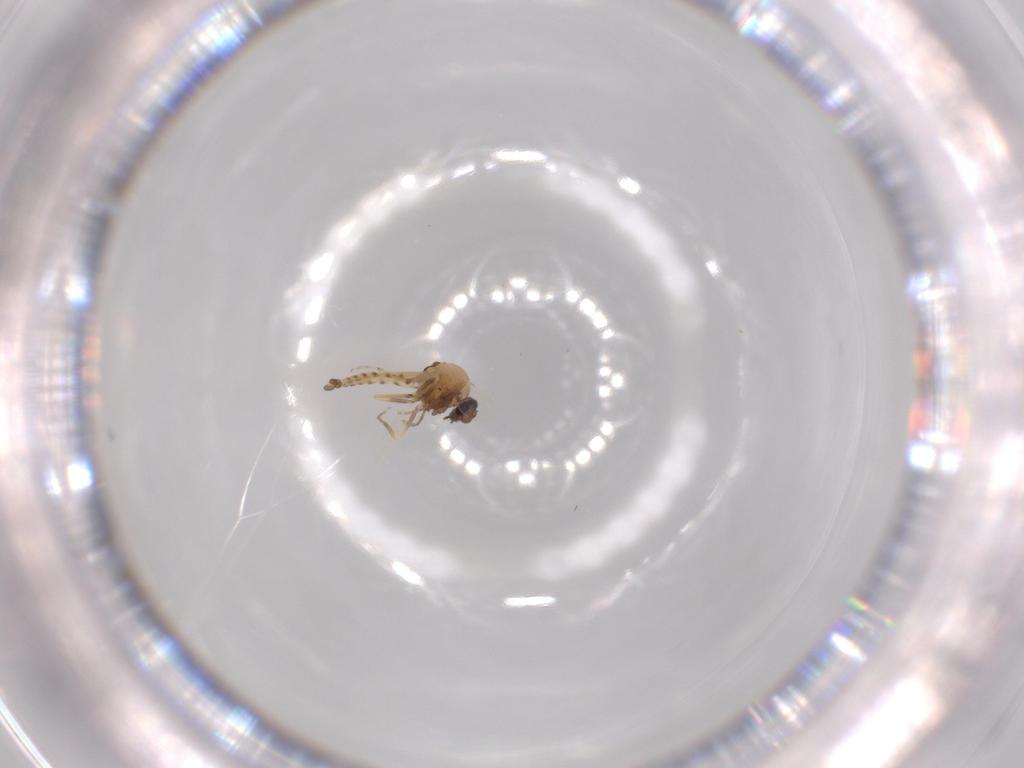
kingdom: Animalia
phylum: Arthropoda
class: Insecta
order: Diptera
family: Ceratopogonidae
